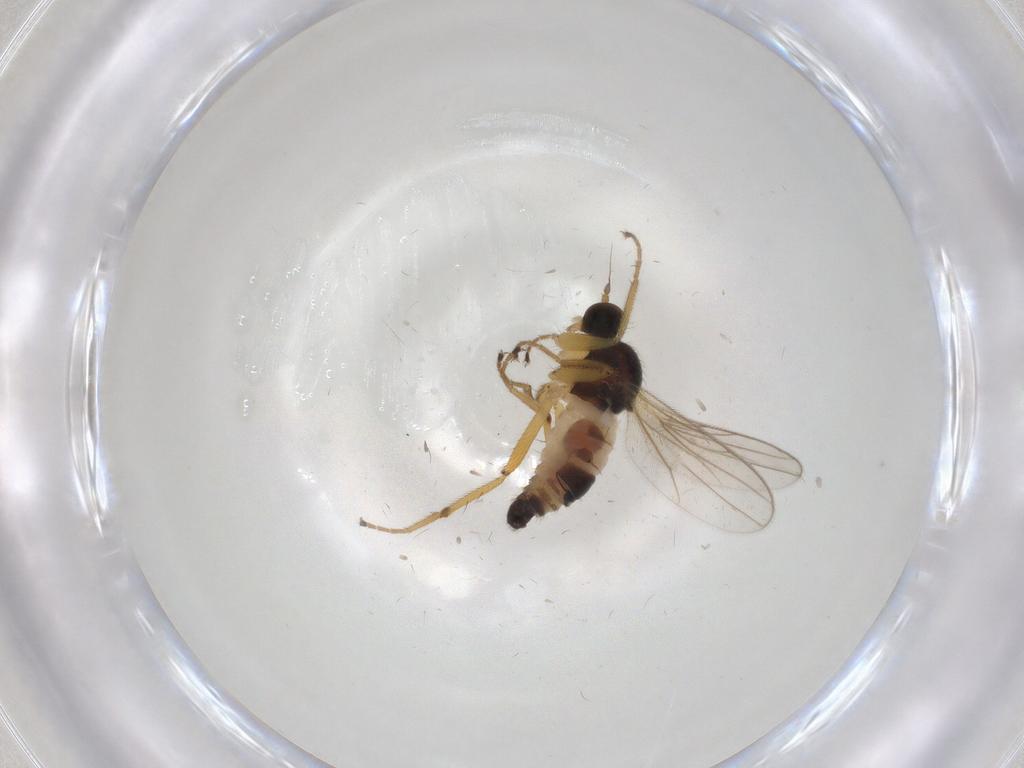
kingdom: Animalia
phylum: Arthropoda
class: Insecta
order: Diptera
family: Hybotidae
